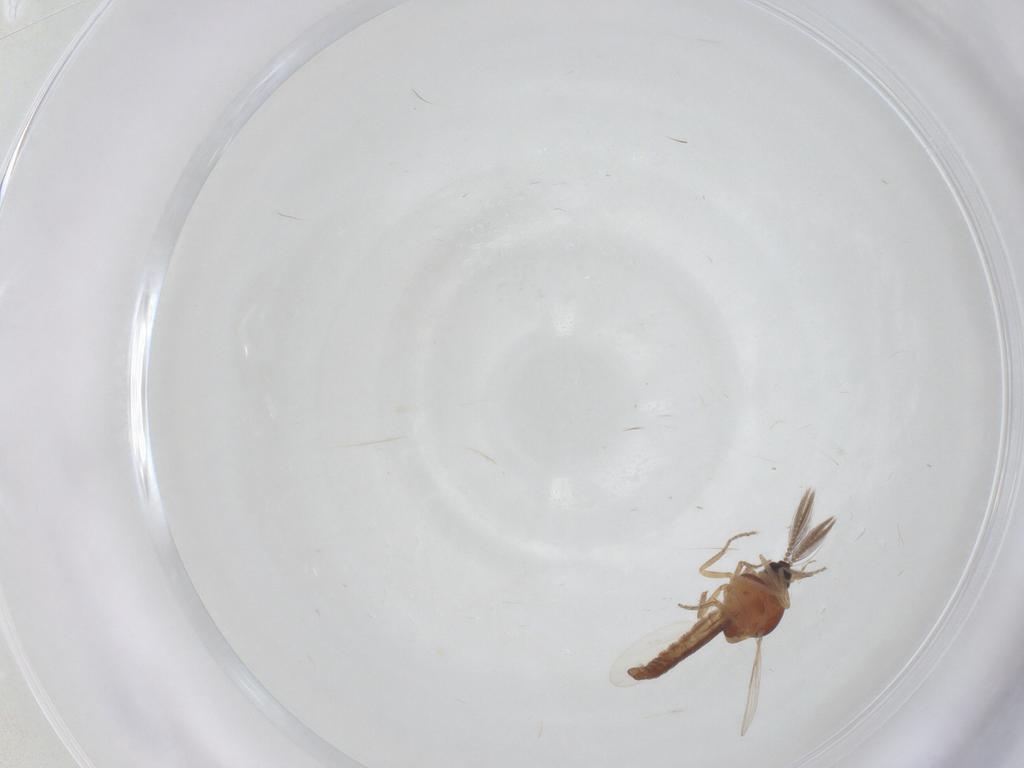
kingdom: Animalia
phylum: Arthropoda
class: Insecta
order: Diptera
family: Ceratopogonidae
